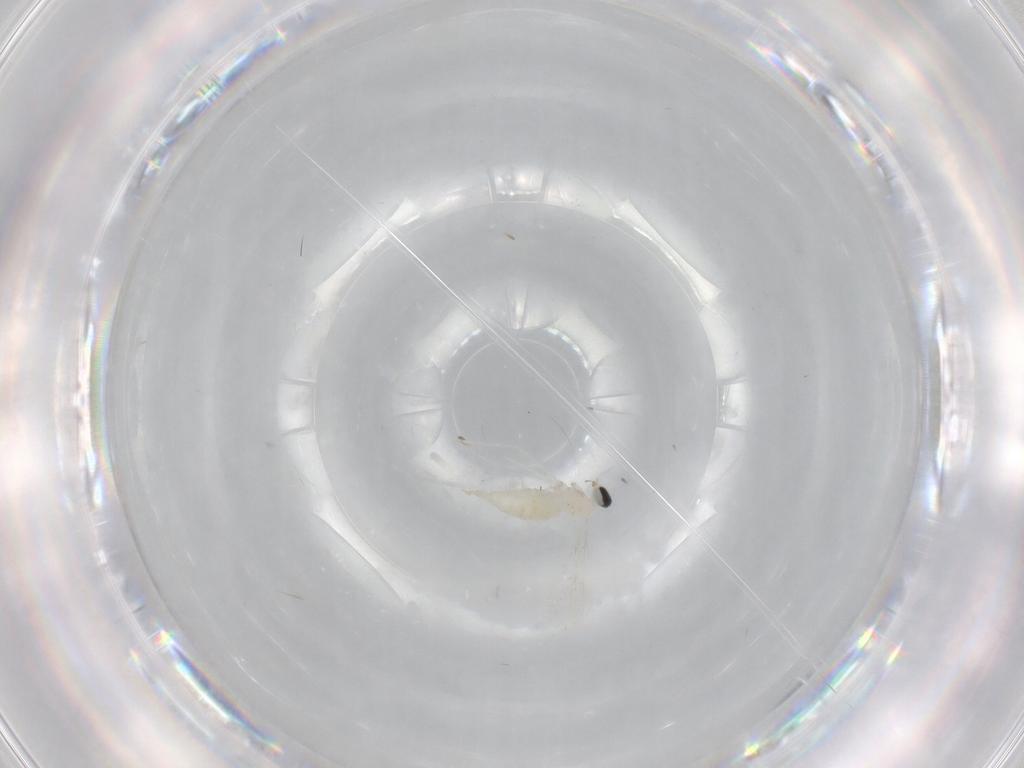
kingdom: Animalia
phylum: Arthropoda
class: Insecta
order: Diptera
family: Cecidomyiidae
